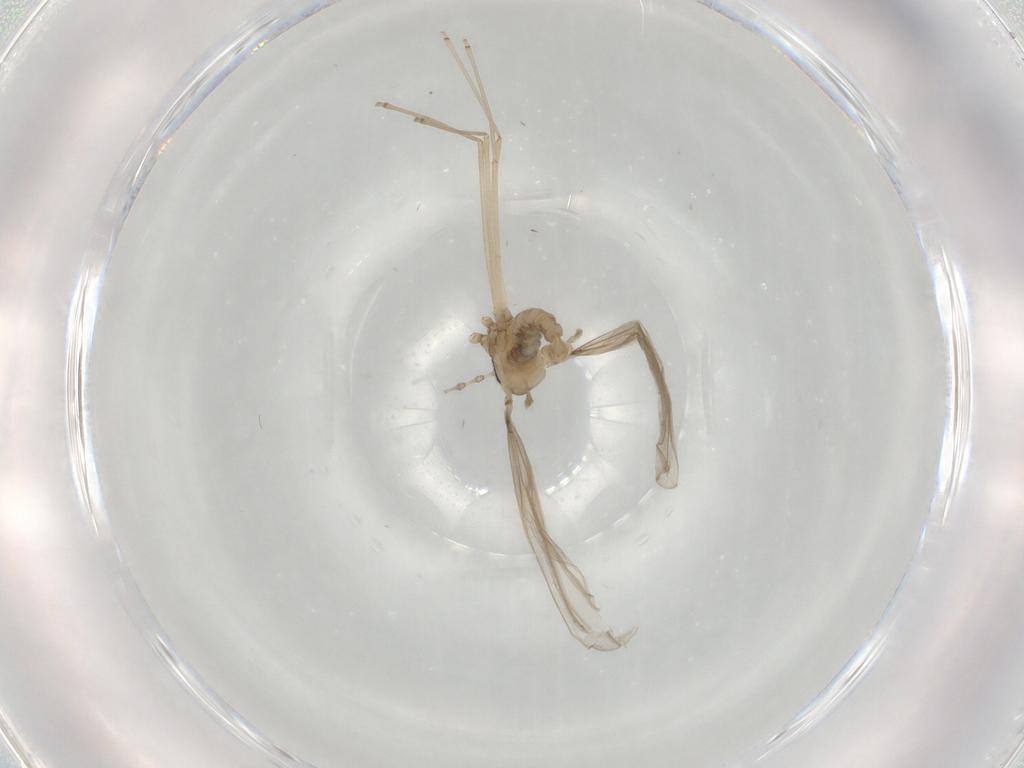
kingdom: Animalia
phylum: Arthropoda
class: Insecta
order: Diptera
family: Cecidomyiidae
